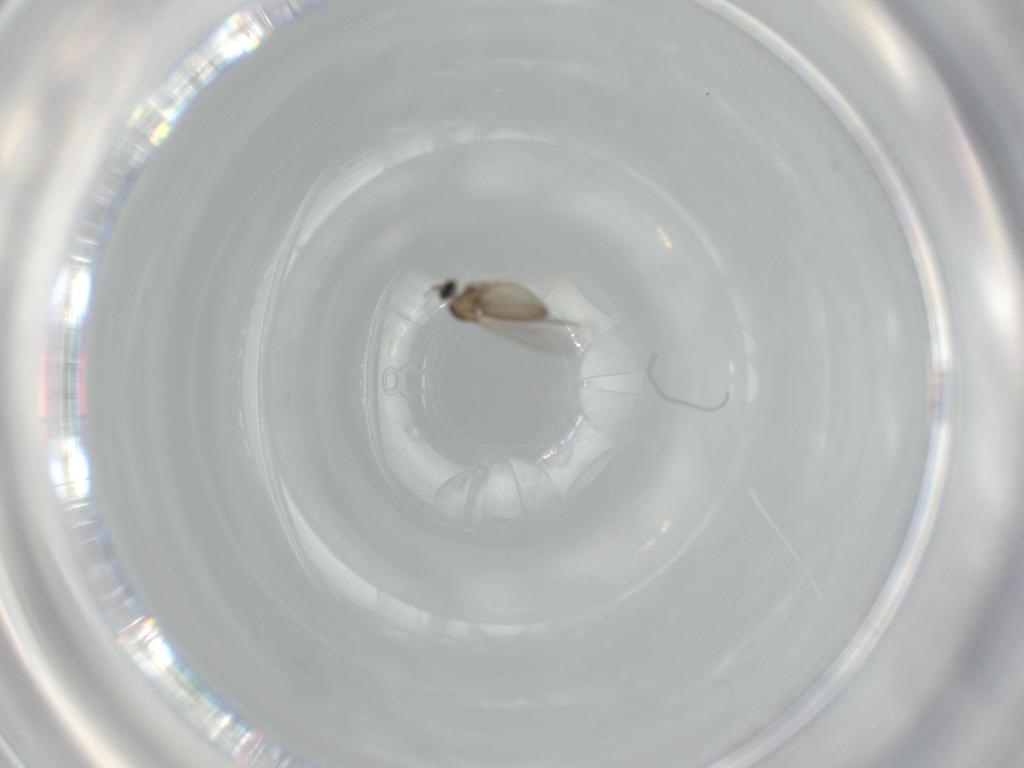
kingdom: Animalia
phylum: Arthropoda
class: Insecta
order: Diptera
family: Cecidomyiidae
